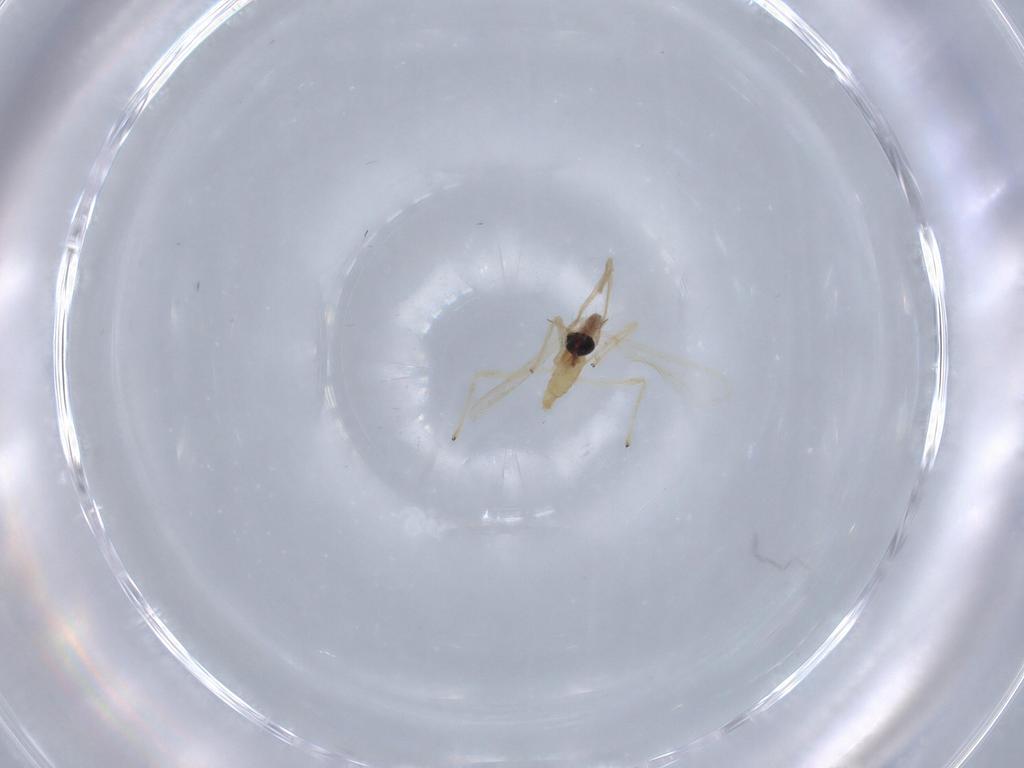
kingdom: Animalia
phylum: Arthropoda
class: Insecta
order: Diptera
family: Chironomidae
